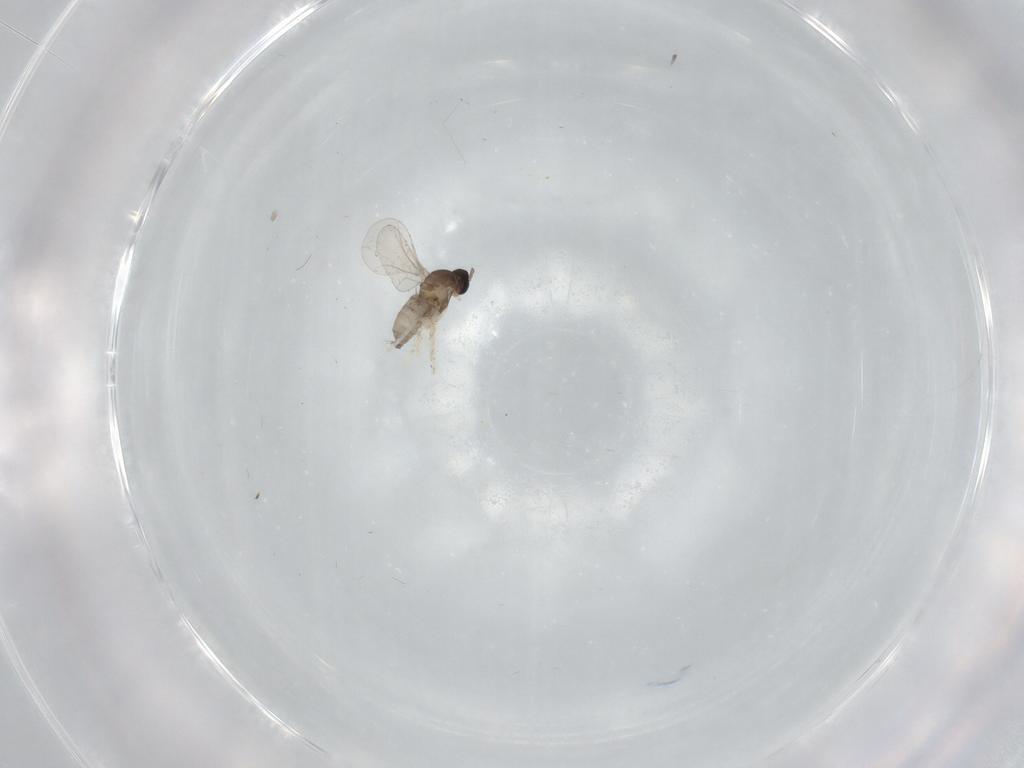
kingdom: Animalia
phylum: Arthropoda
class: Insecta
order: Diptera
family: Cecidomyiidae
